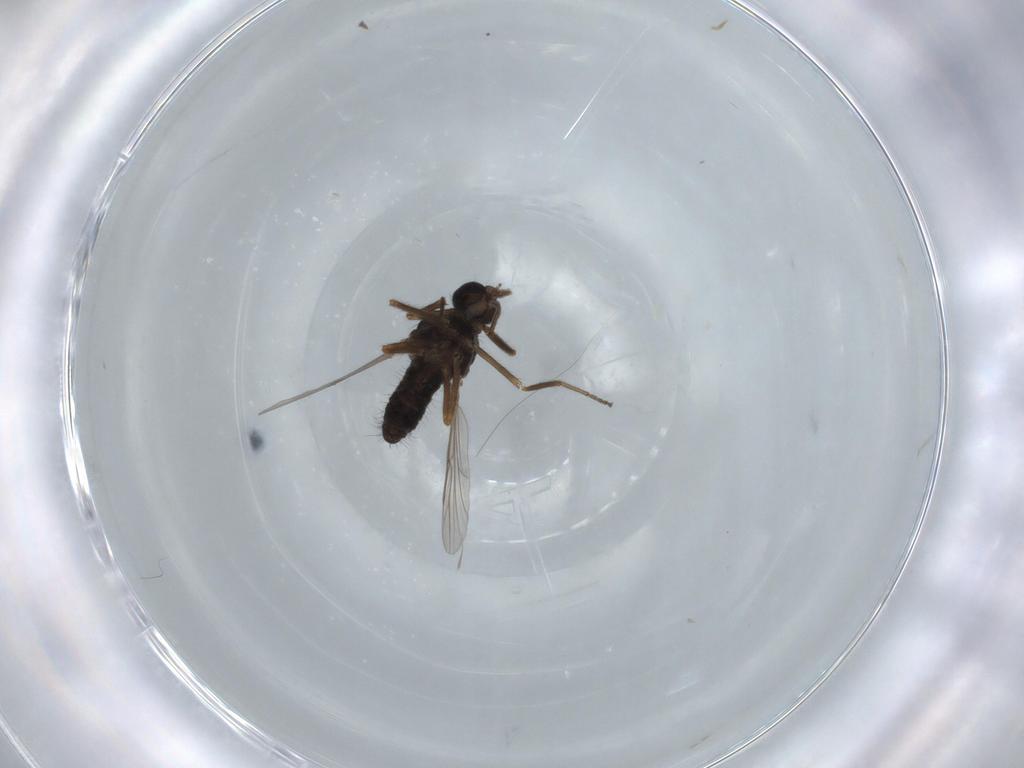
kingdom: Animalia
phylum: Arthropoda
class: Insecta
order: Diptera
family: Ceratopogonidae
